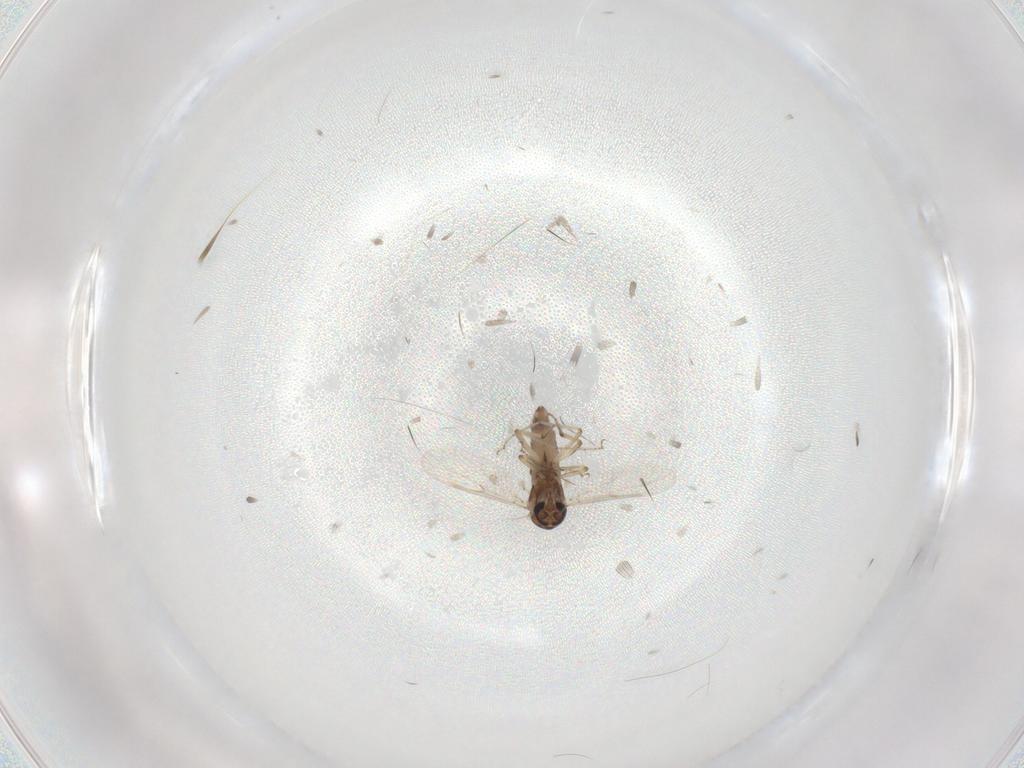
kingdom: Animalia
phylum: Arthropoda
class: Insecta
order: Diptera
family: Ceratopogonidae
